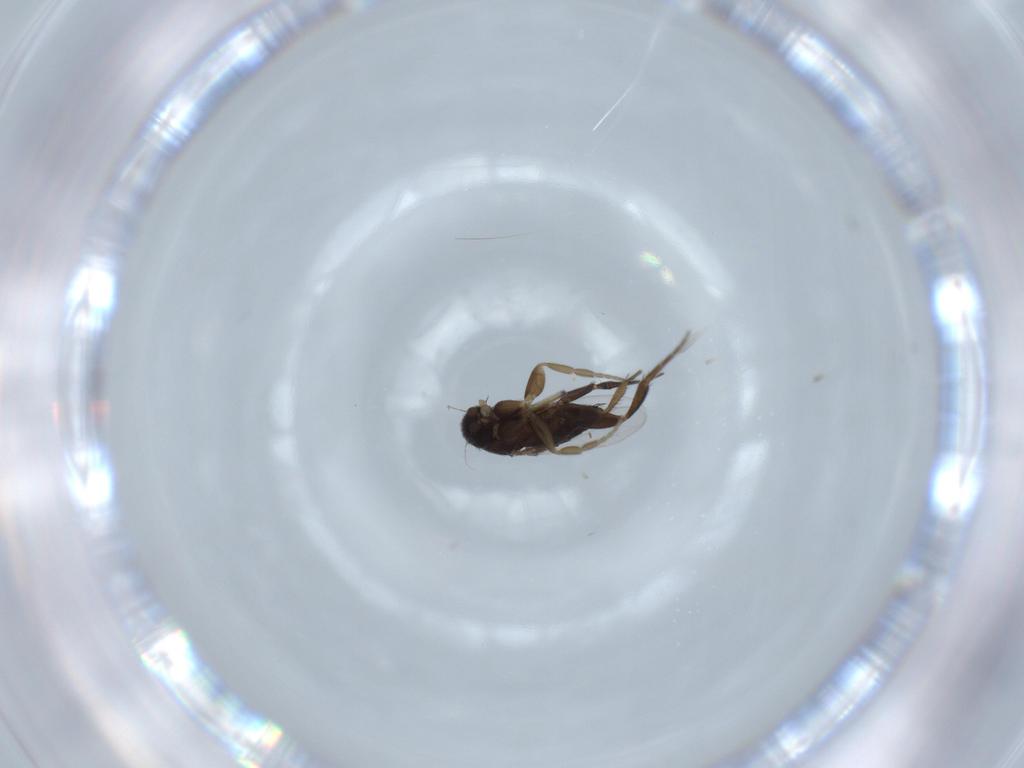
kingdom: Animalia
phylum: Arthropoda
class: Insecta
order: Diptera
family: Phoridae
